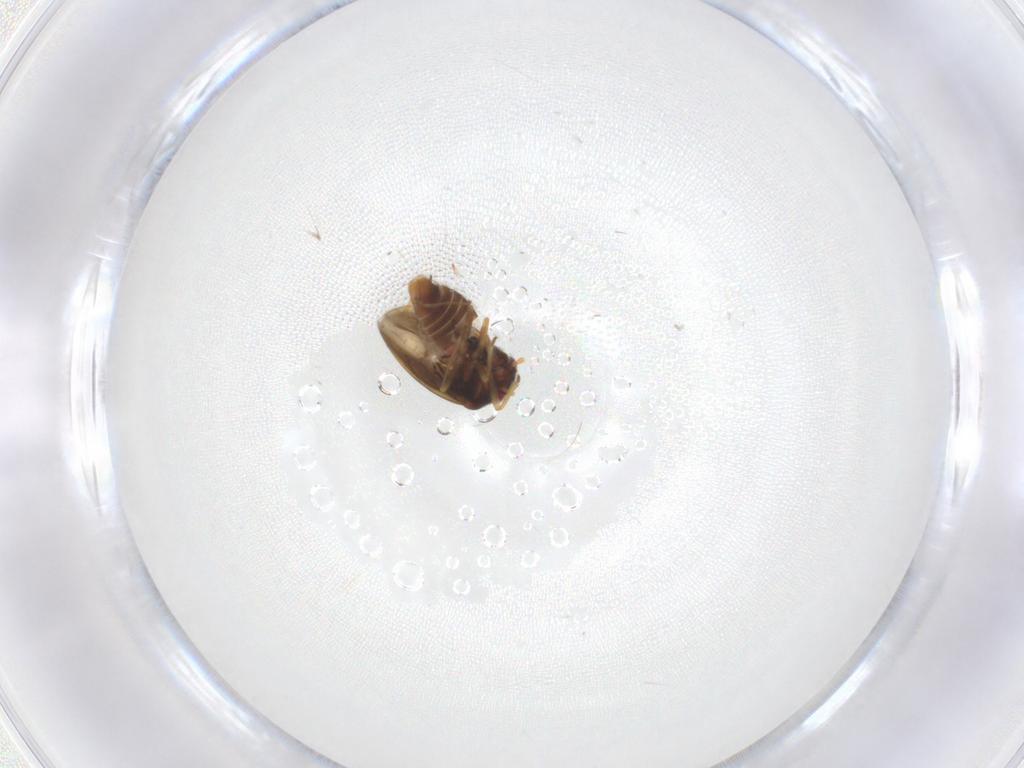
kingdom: Animalia
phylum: Arthropoda
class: Insecta
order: Hemiptera
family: Schizopteridae
